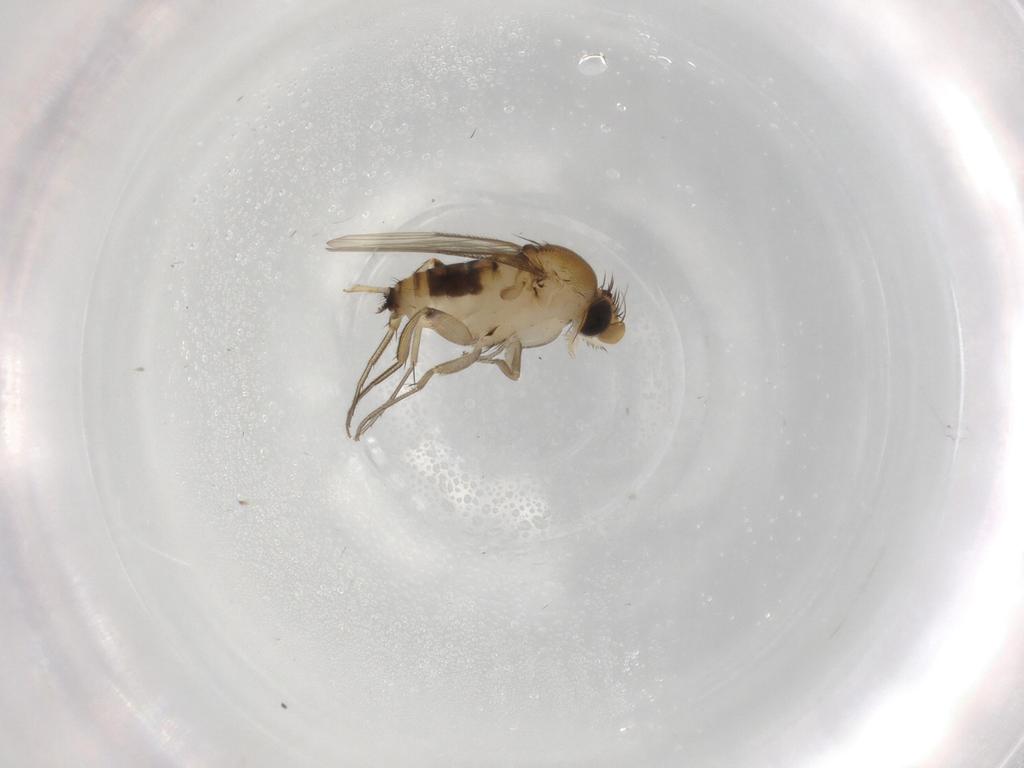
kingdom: Animalia
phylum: Arthropoda
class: Insecta
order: Diptera
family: Phoridae
